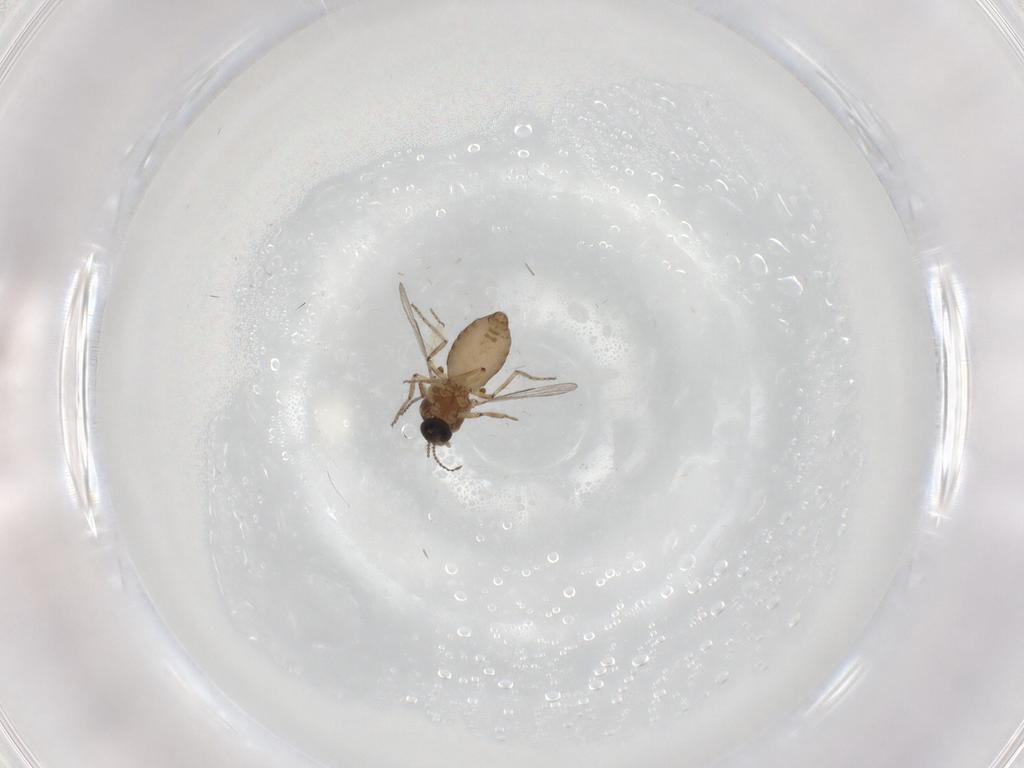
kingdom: Animalia
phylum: Arthropoda
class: Insecta
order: Diptera
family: Ceratopogonidae
